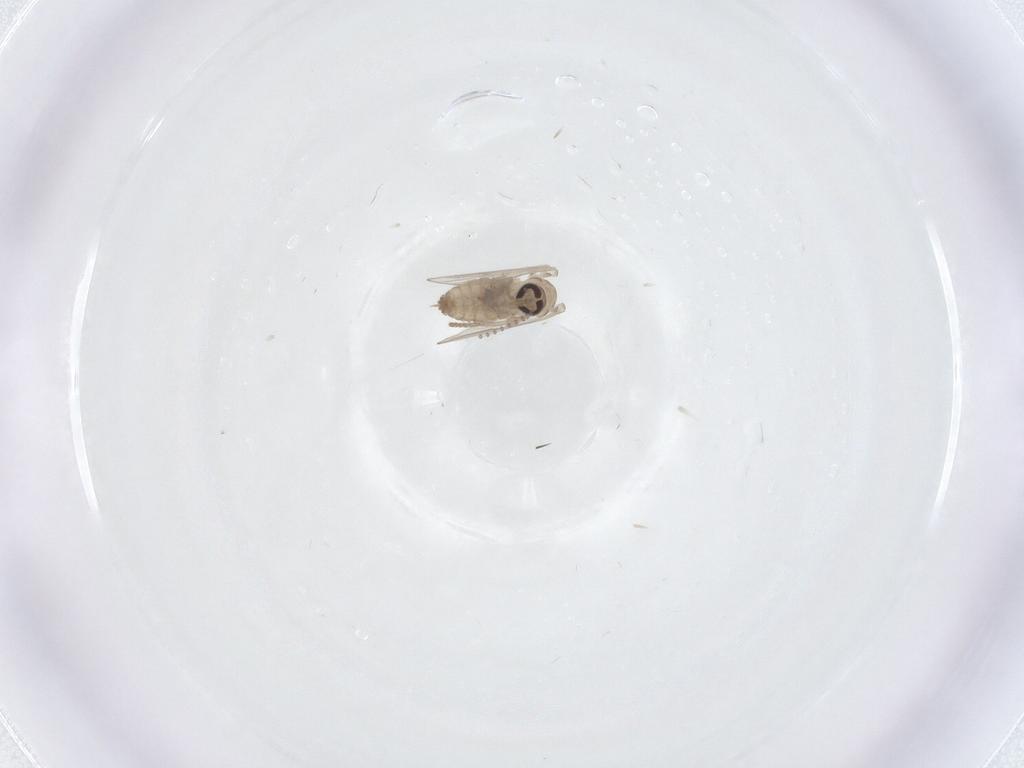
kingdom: Animalia
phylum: Arthropoda
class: Insecta
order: Diptera
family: Psychodidae
